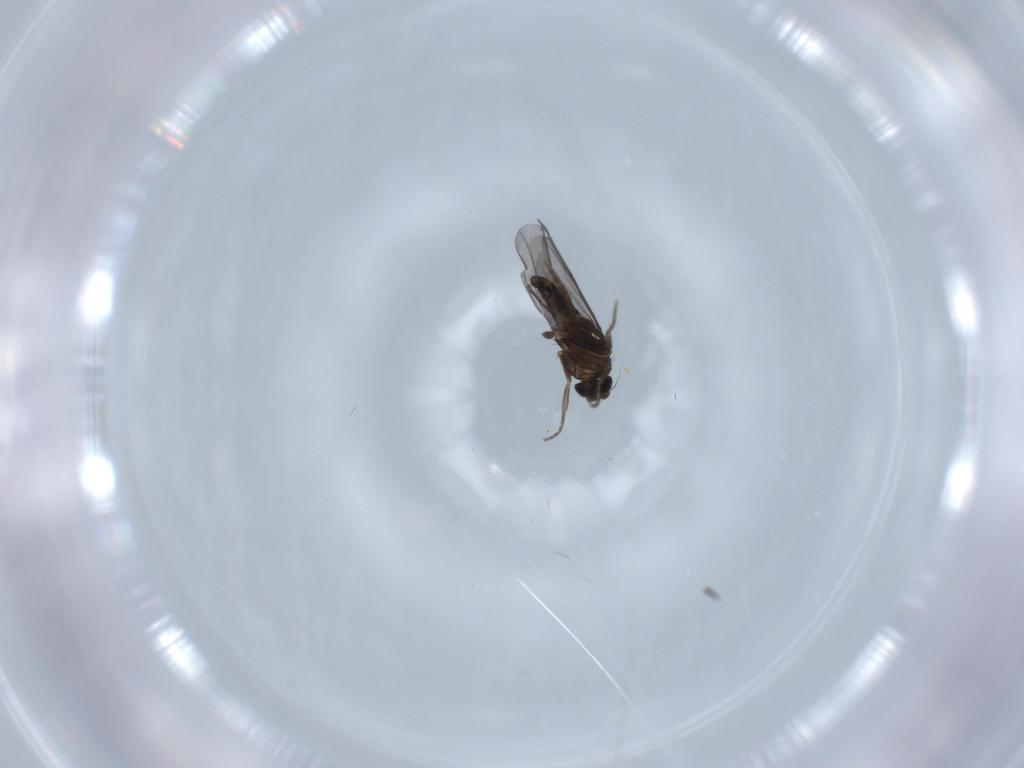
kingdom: Animalia
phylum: Arthropoda
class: Insecta
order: Diptera
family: Phoridae
